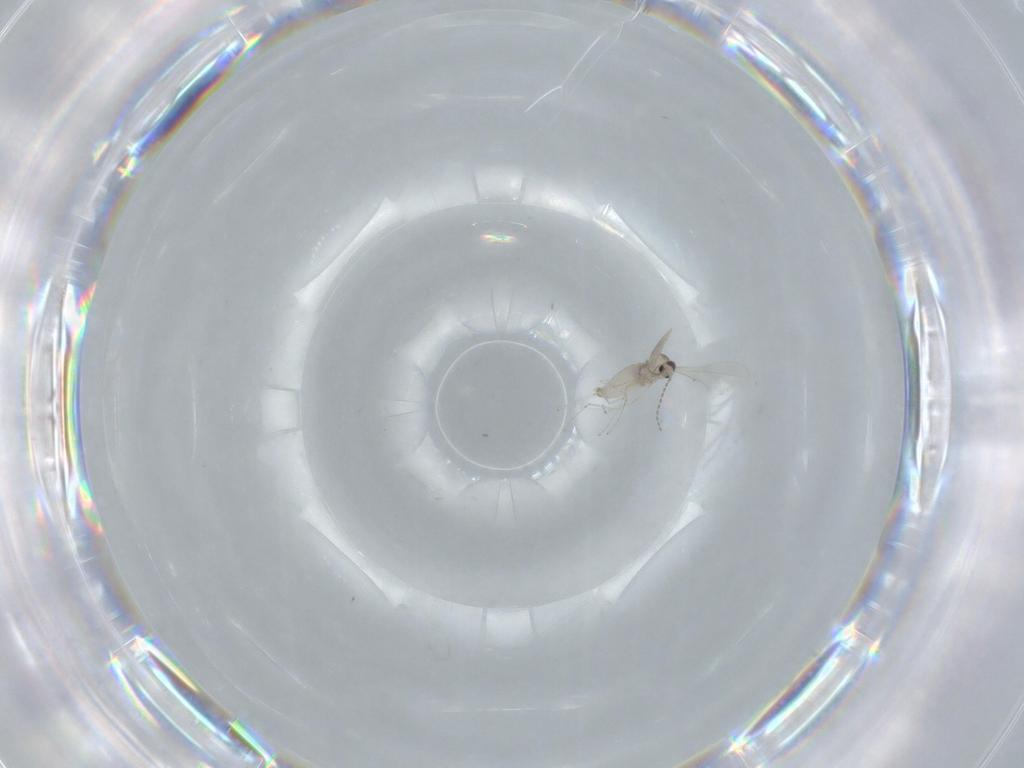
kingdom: Animalia
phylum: Arthropoda
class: Insecta
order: Diptera
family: Cecidomyiidae
